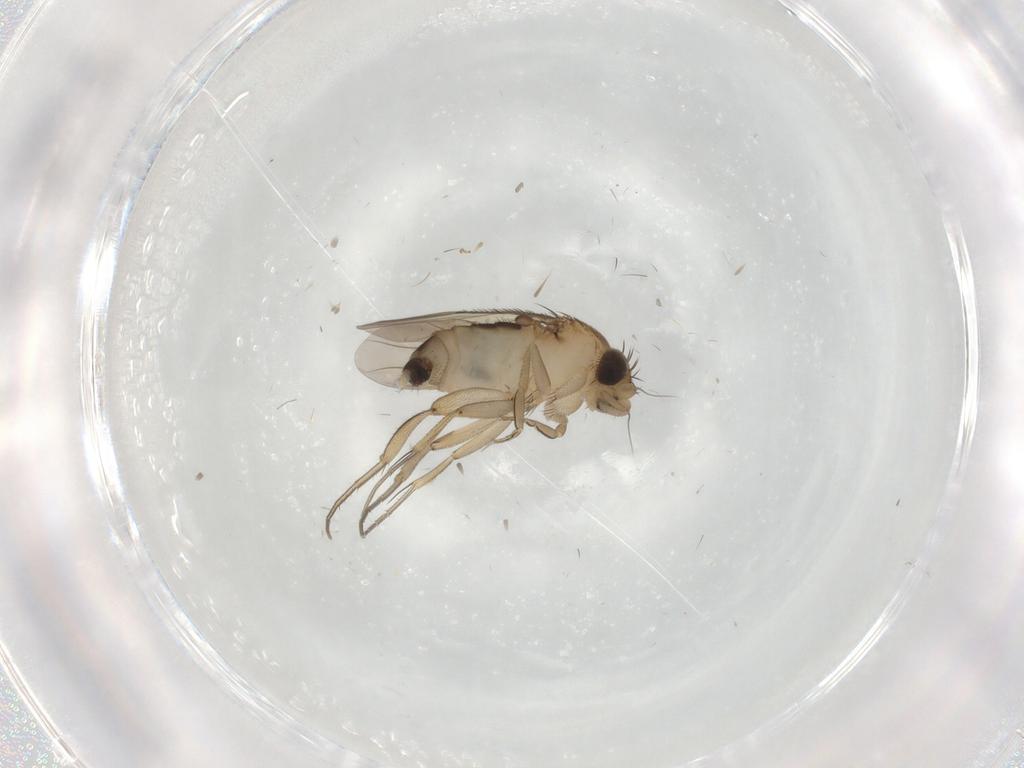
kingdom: Animalia
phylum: Arthropoda
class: Insecta
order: Diptera
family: Phoridae
